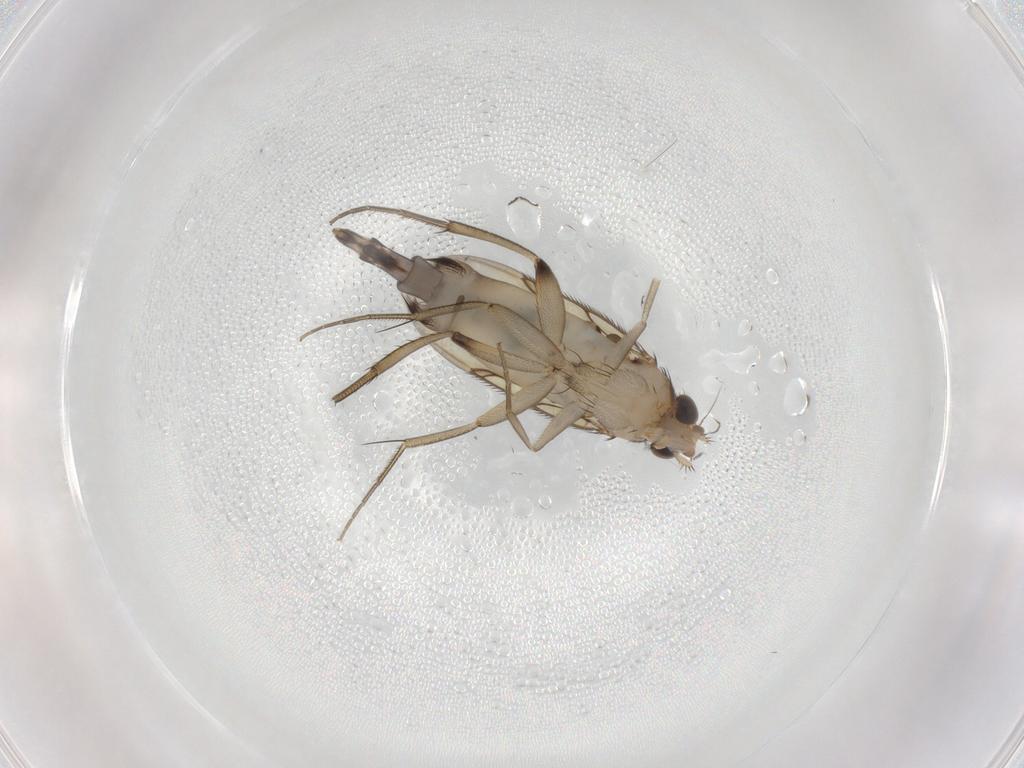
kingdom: Animalia
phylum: Arthropoda
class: Insecta
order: Diptera
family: Phoridae
